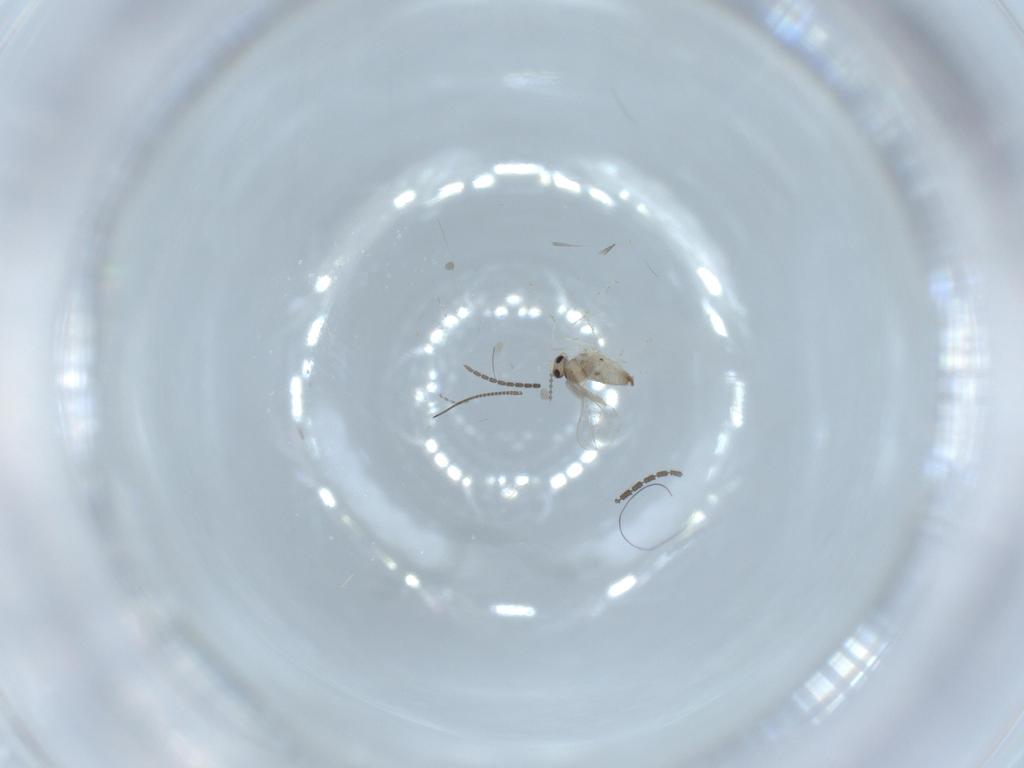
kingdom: Animalia
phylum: Arthropoda
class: Insecta
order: Diptera
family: Cecidomyiidae
